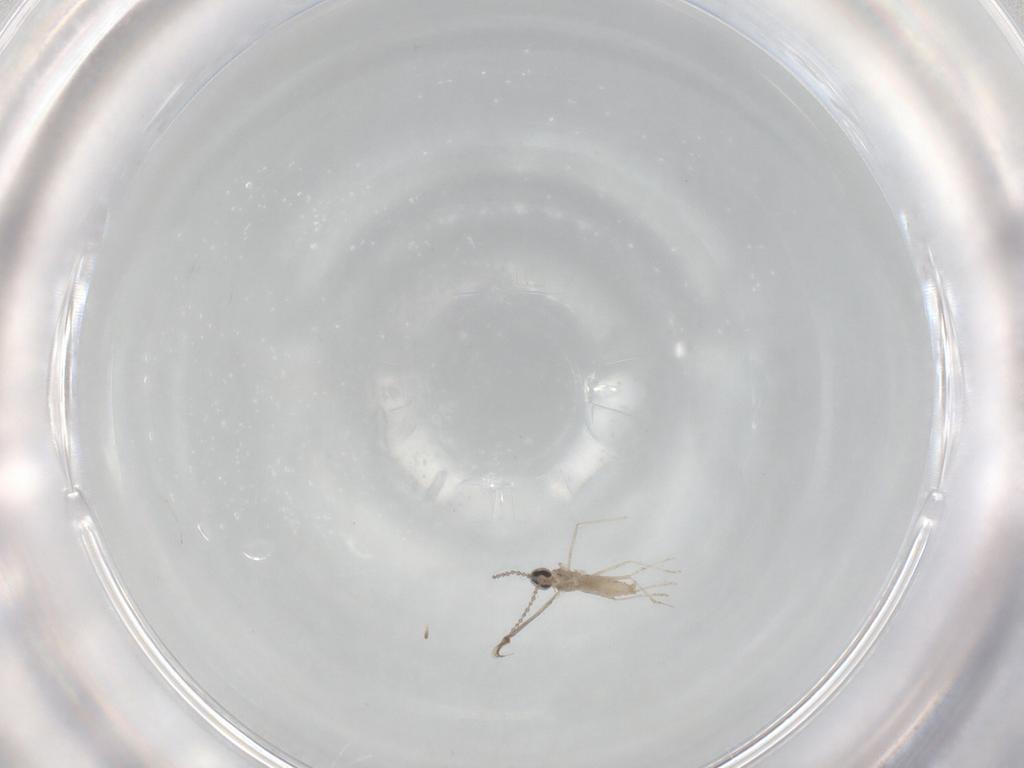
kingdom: Animalia
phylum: Arthropoda
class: Insecta
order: Diptera
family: Cecidomyiidae
